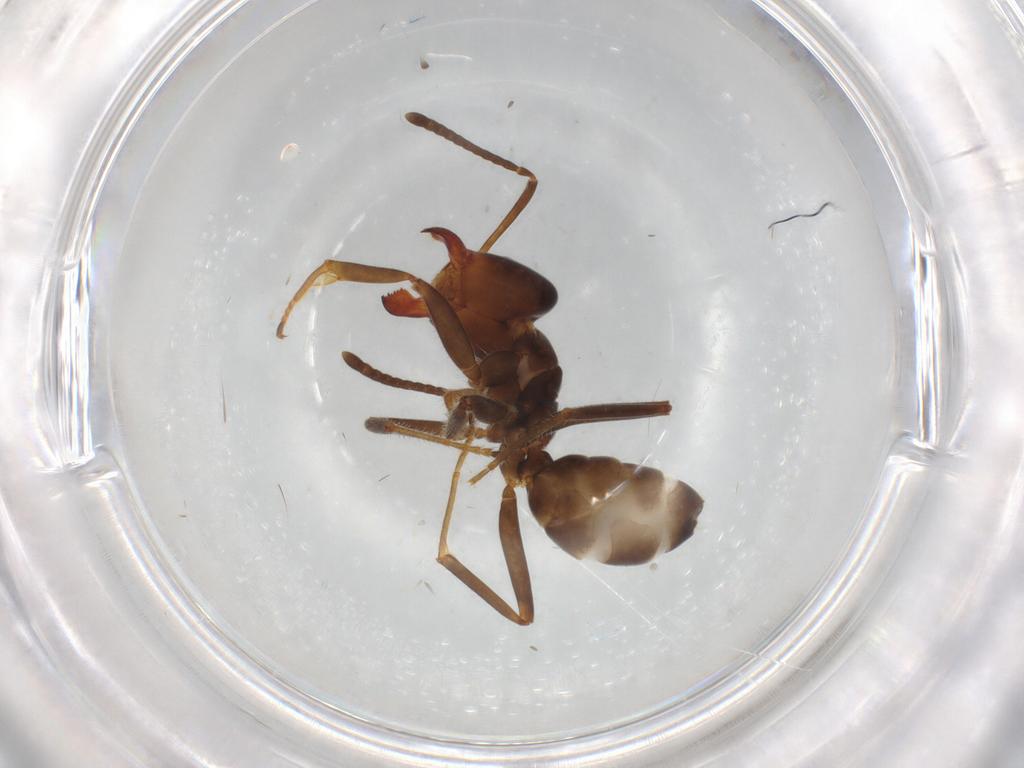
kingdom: Animalia
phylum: Arthropoda
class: Insecta
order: Hymenoptera
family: Formicidae
